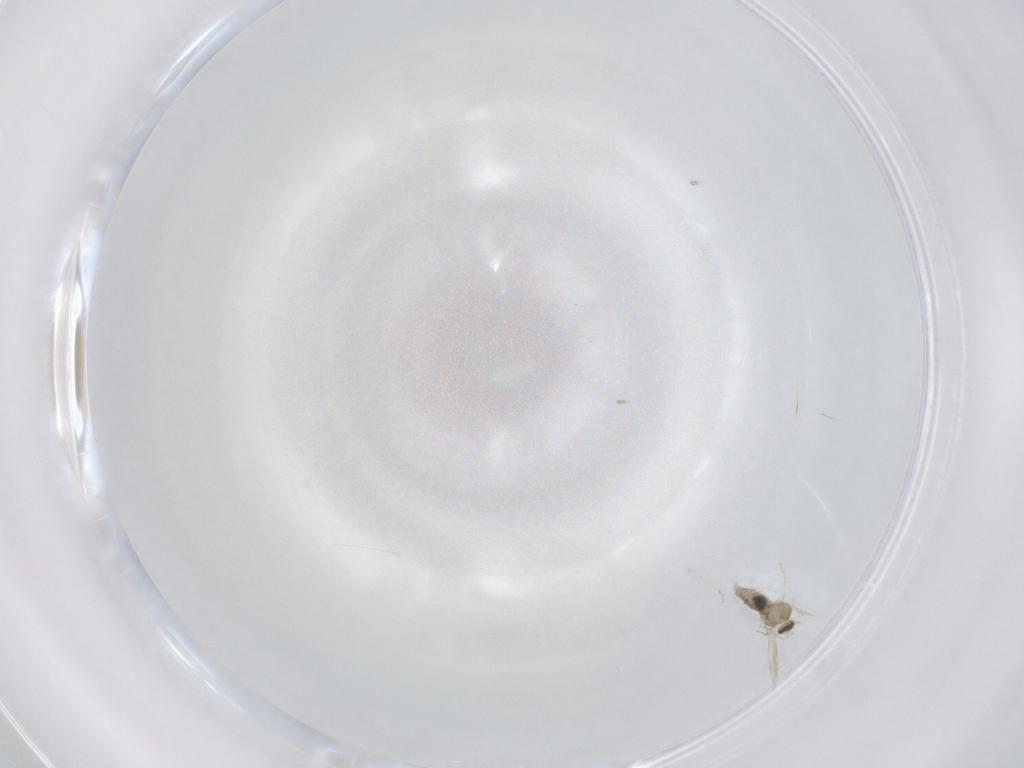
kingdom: Animalia
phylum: Arthropoda
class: Insecta
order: Diptera
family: Cecidomyiidae
